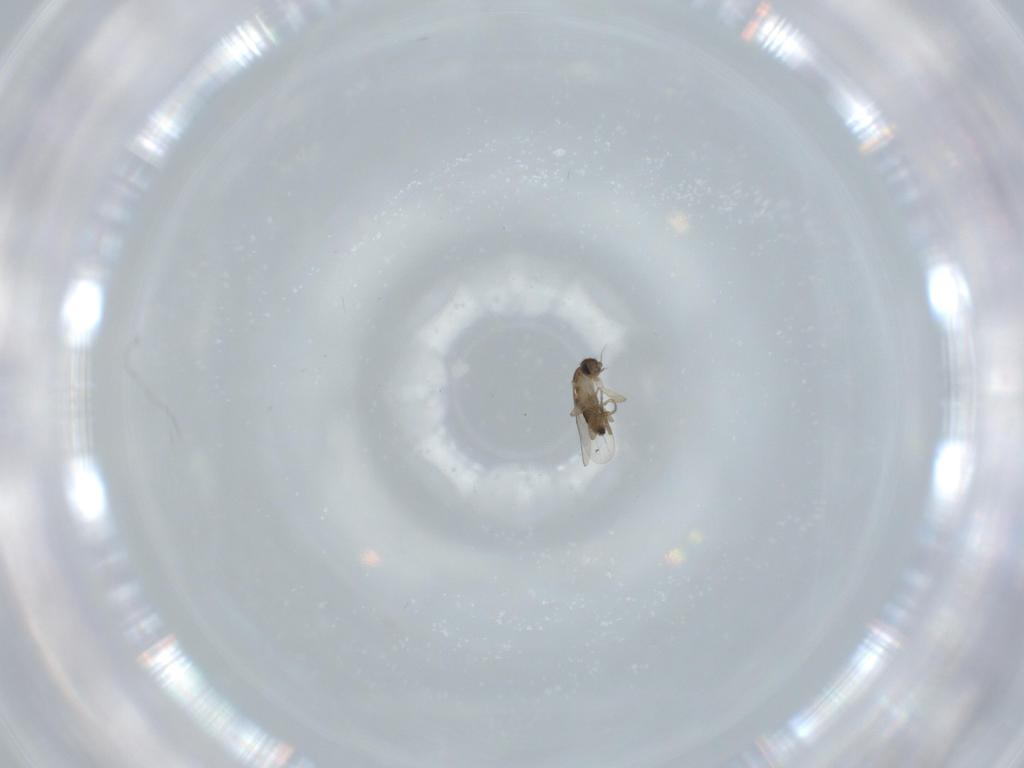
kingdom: Animalia
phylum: Arthropoda
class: Insecta
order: Diptera
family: Phoridae
